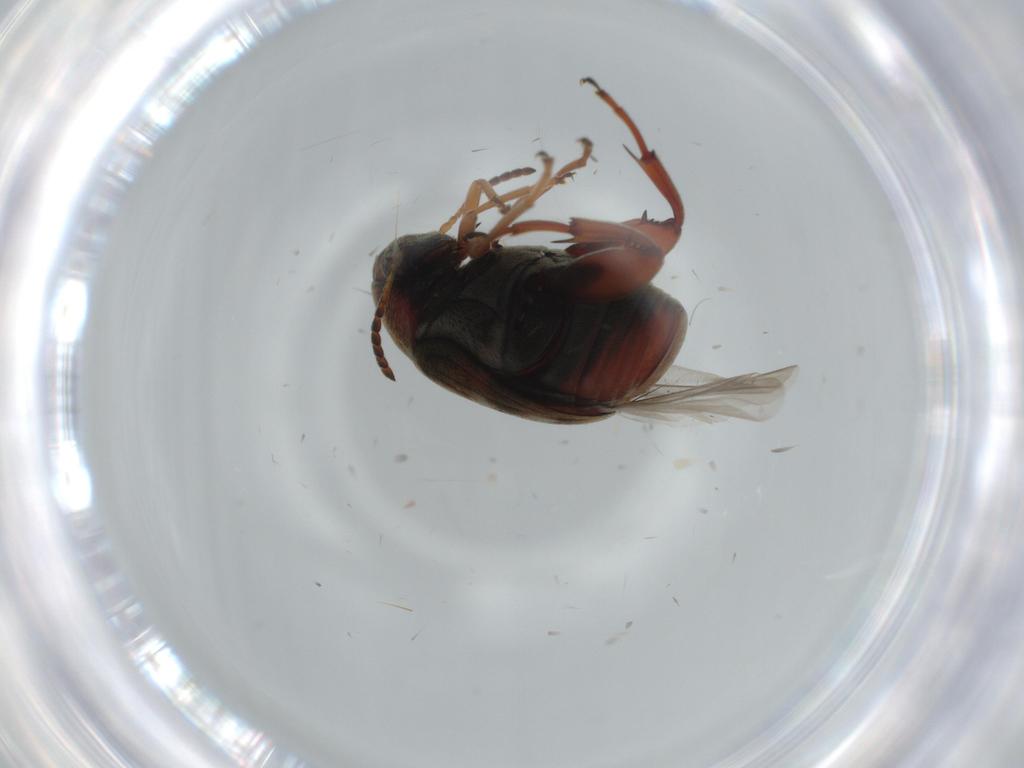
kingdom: Animalia
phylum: Arthropoda
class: Insecta
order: Coleoptera
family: Chrysomelidae
